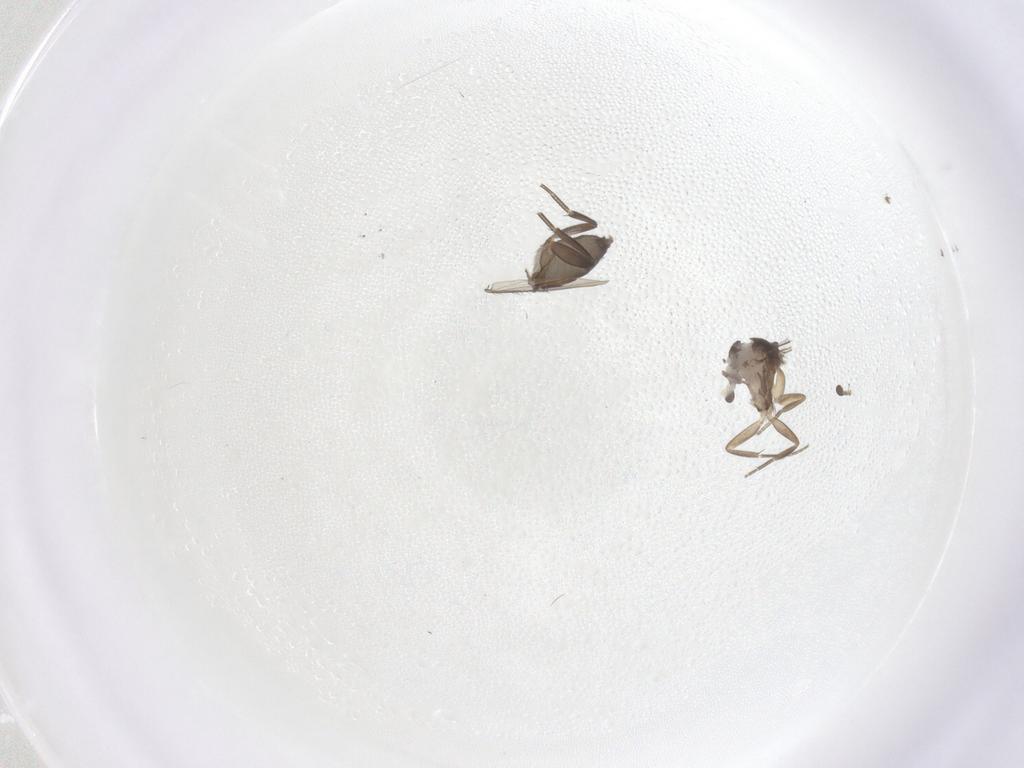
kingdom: Animalia
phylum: Arthropoda
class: Insecta
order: Diptera
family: Phoridae
